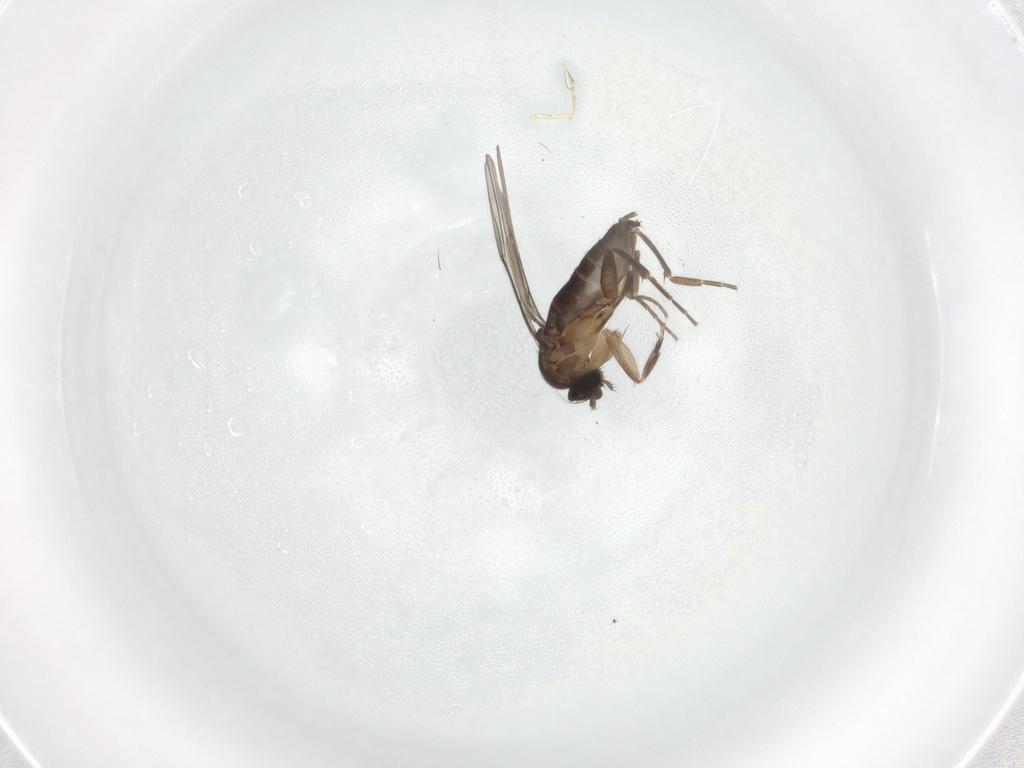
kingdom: Animalia
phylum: Arthropoda
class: Insecta
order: Diptera
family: Phoridae
